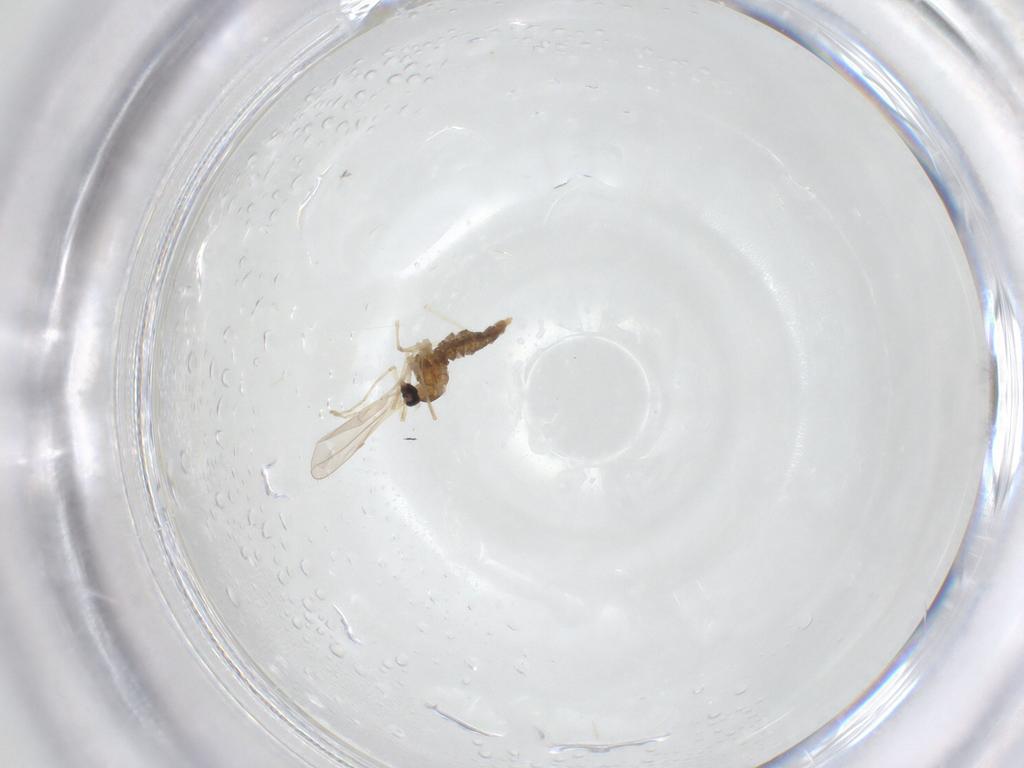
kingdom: Animalia
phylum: Arthropoda
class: Insecta
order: Diptera
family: Cecidomyiidae
